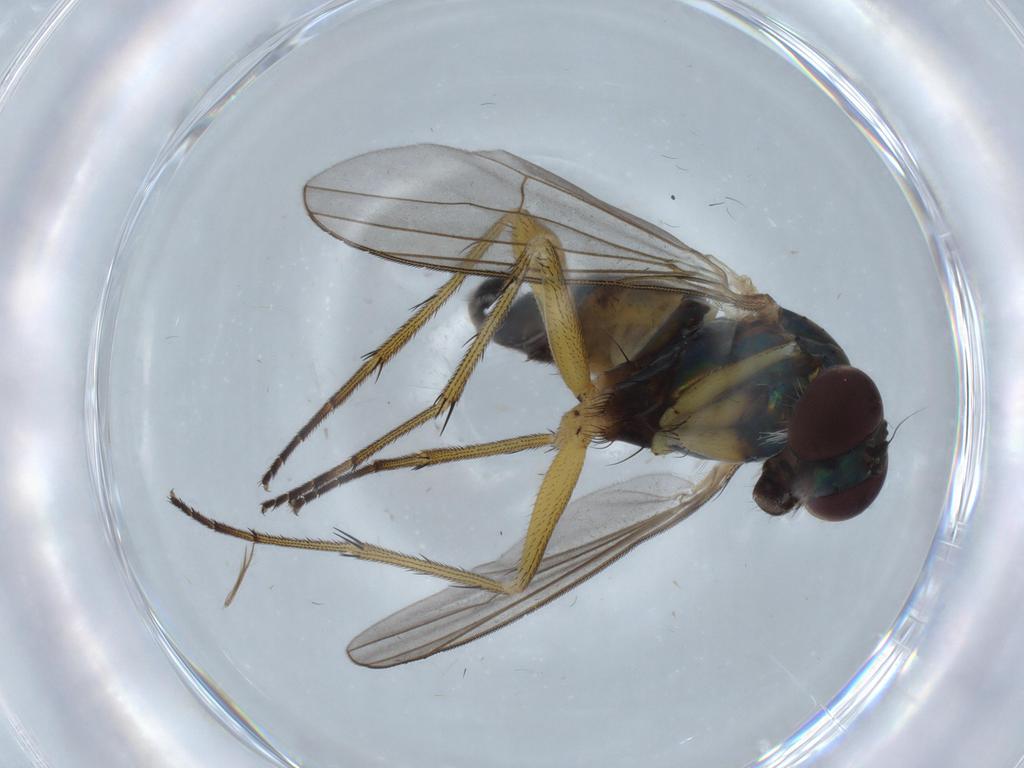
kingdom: Animalia
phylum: Arthropoda
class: Insecta
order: Diptera
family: Ceratopogonidae
